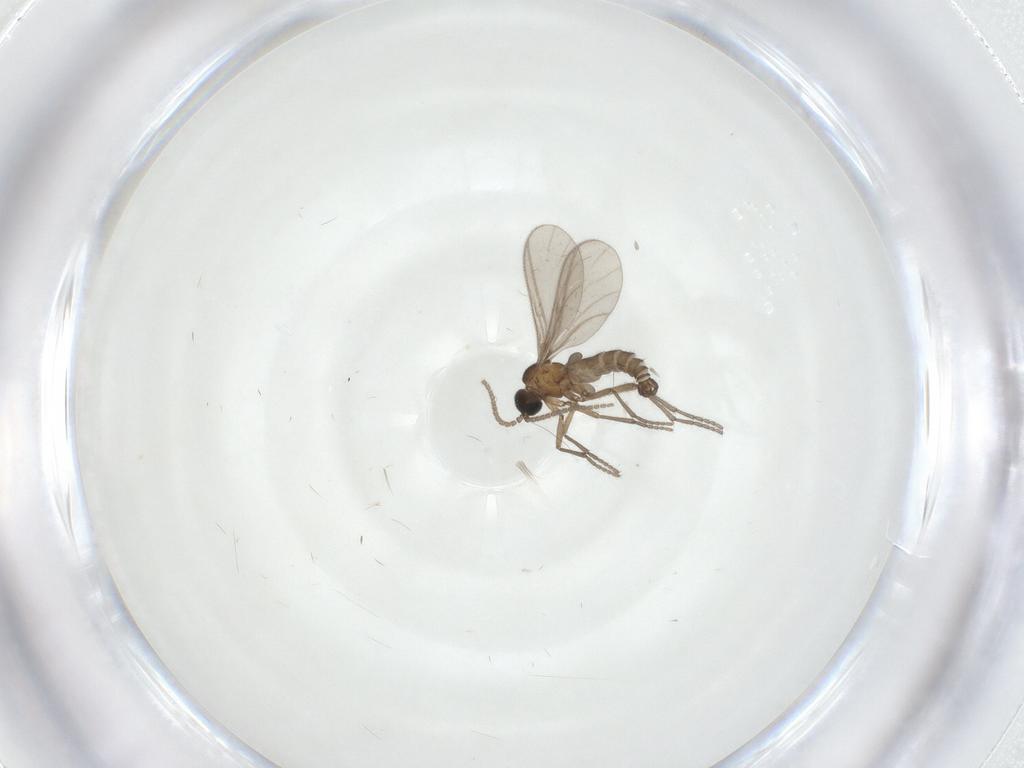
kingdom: Animalia
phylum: Arthropoda
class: Insecta
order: Diptera
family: Sciaridae
